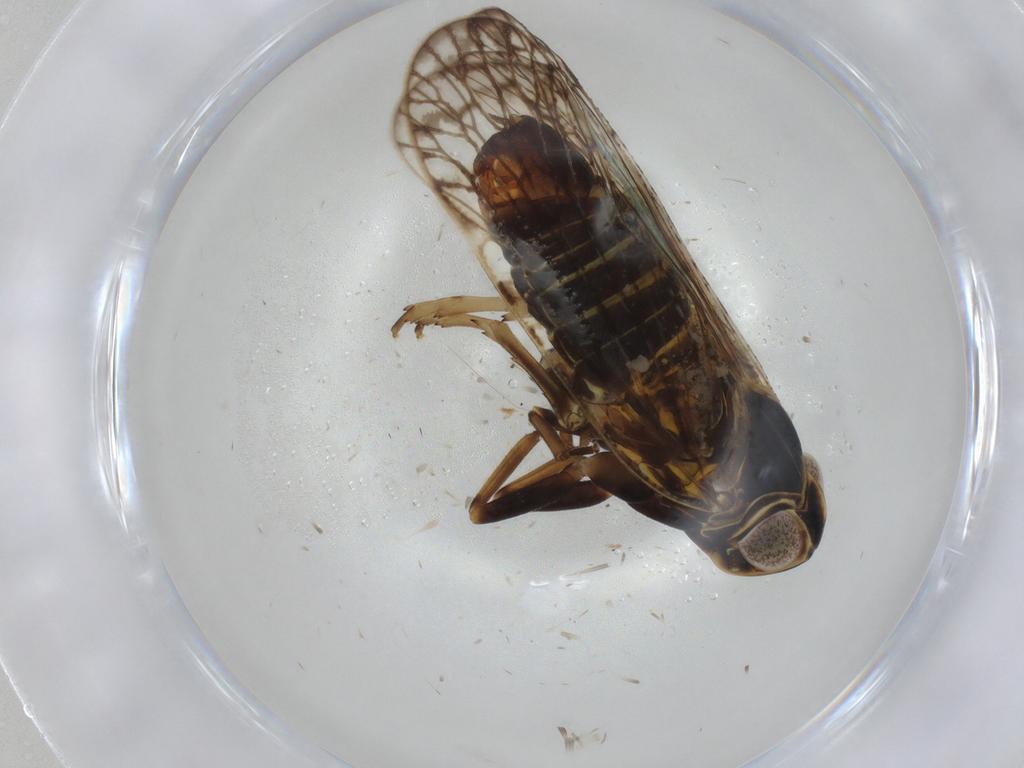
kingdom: Animalia
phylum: Arthropoda
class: Insecta
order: Hemiptera
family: Cixiidae
